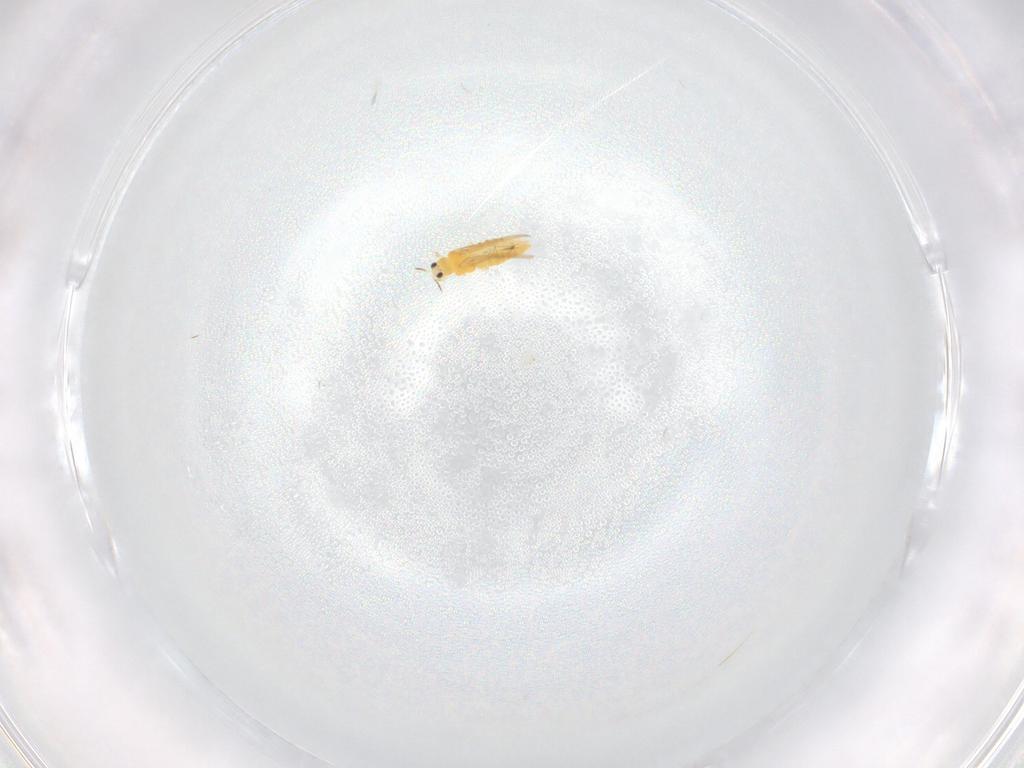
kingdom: Animalia
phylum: Arthropoda
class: Insecta
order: Thysanoptera
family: Thripidae
